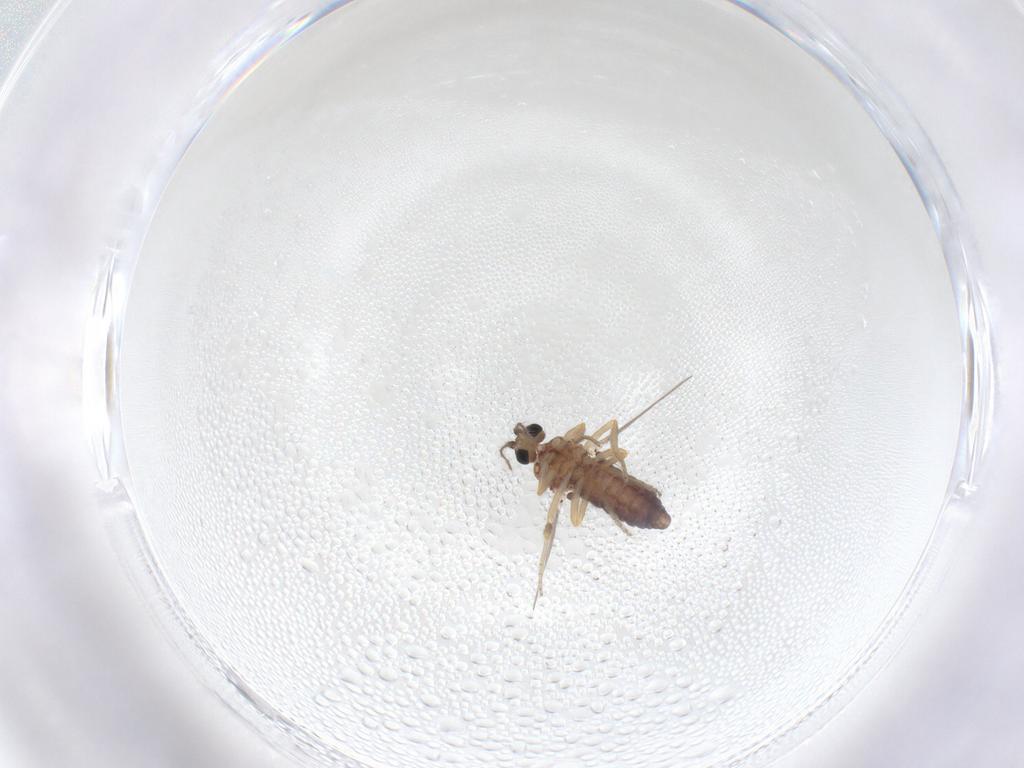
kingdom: Animalia
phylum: Arthropoda
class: Insecta
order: Diptera
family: Ceratopogonidae
